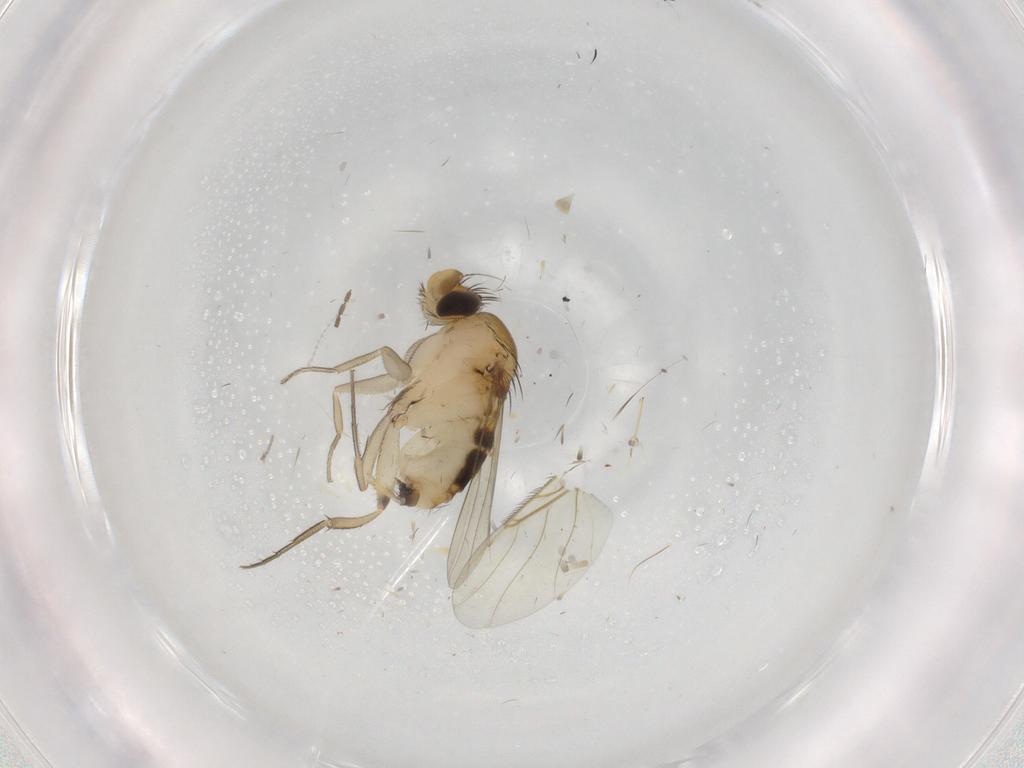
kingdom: Animalia
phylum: Arthropoda
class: Insecta
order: Diptera
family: Phoridae
